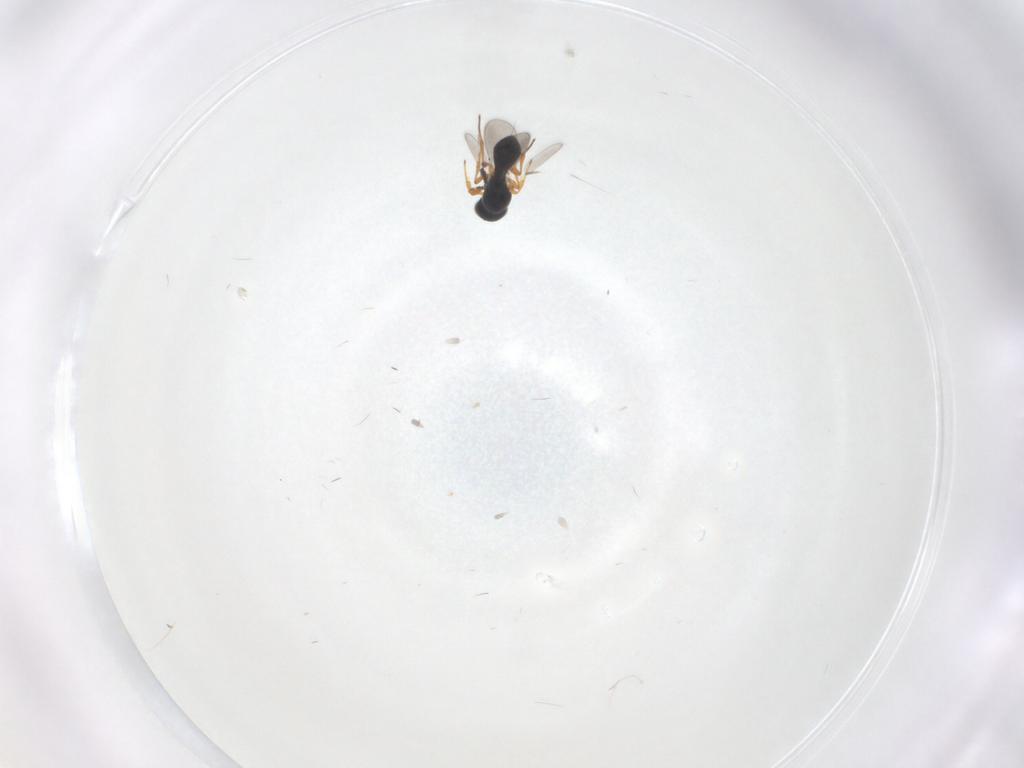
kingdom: Animalia
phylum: Arthropoda
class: Insecta
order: Hymenoptera
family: Platygastridae
